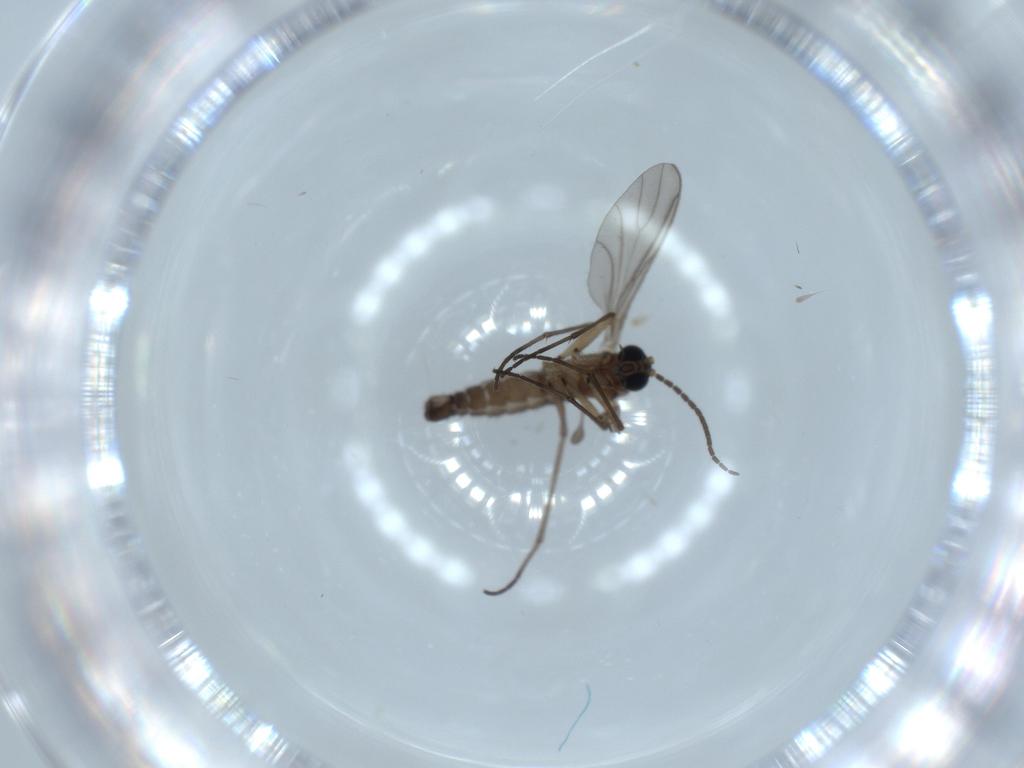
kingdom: Animalia
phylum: Arthropoda
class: Insecta
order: Diptera
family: Sciaridae
